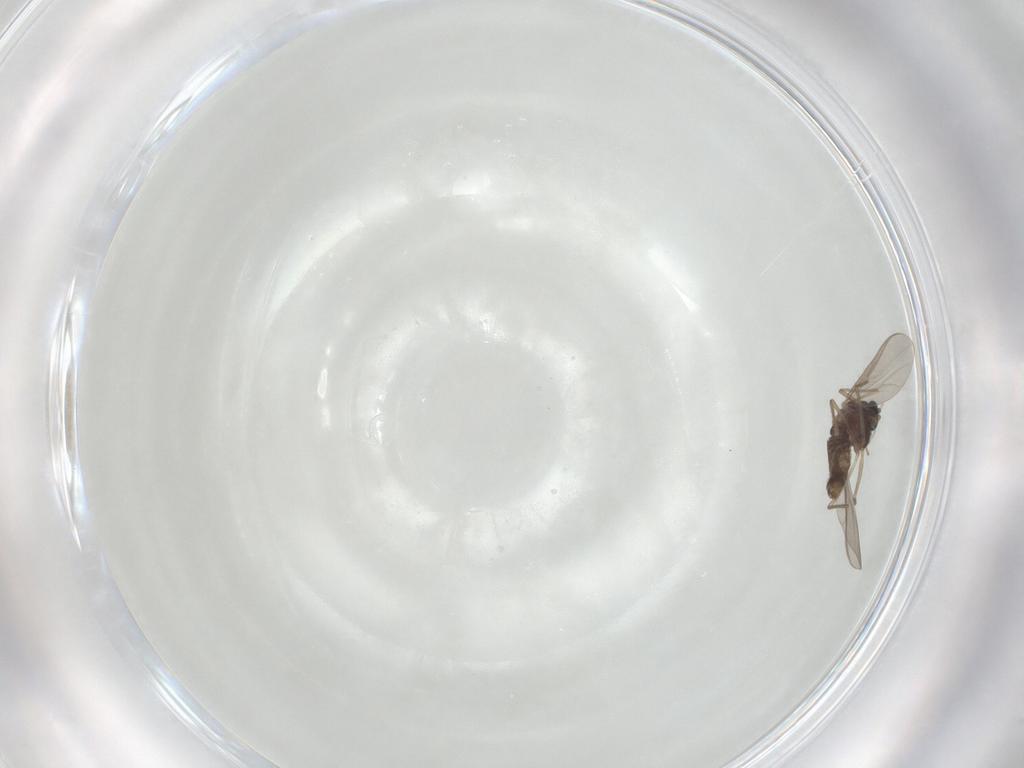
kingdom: Animalia
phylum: Arthropoda
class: Insecta
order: Diptera
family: Chironomidae
